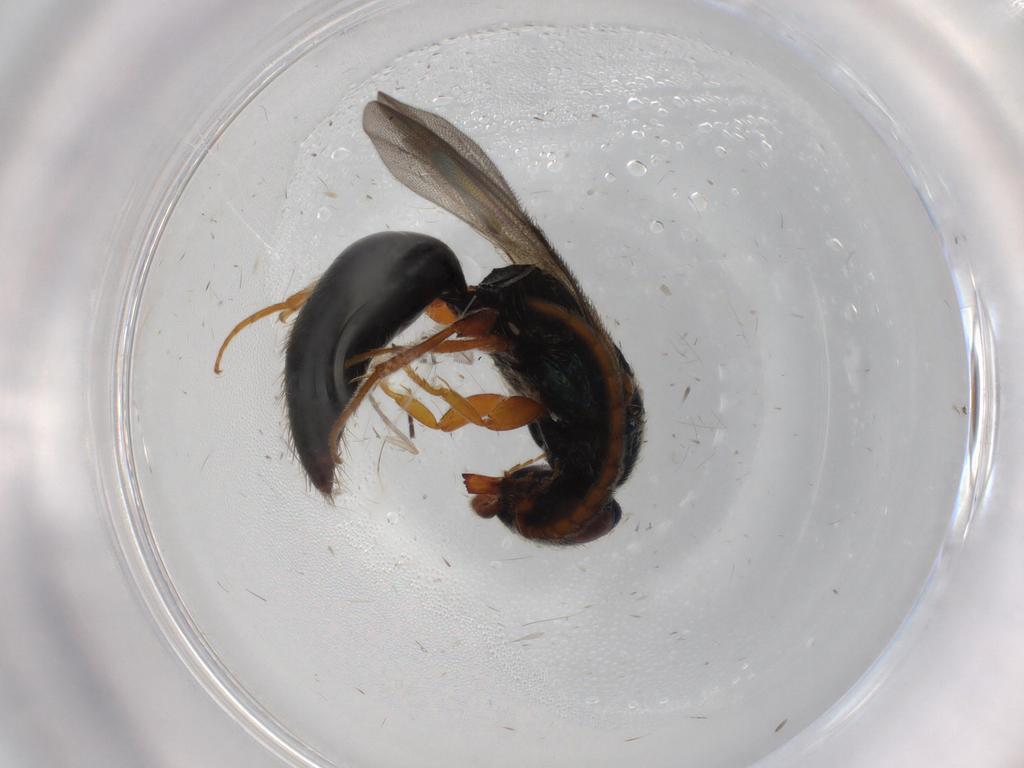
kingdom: Animalia
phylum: Arthropoda
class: Insecta
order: Hymenoptera
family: Bethylidae
